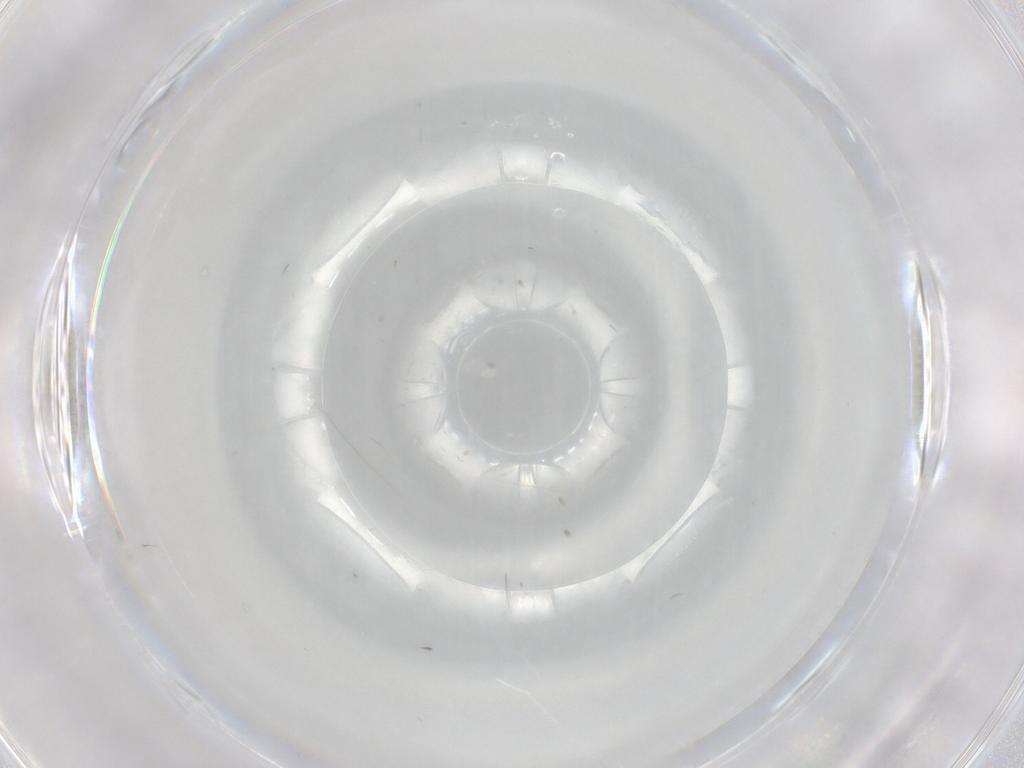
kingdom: Animalia
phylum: Arthropoda
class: Insecta
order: Diptera
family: Cecidomyiidae
